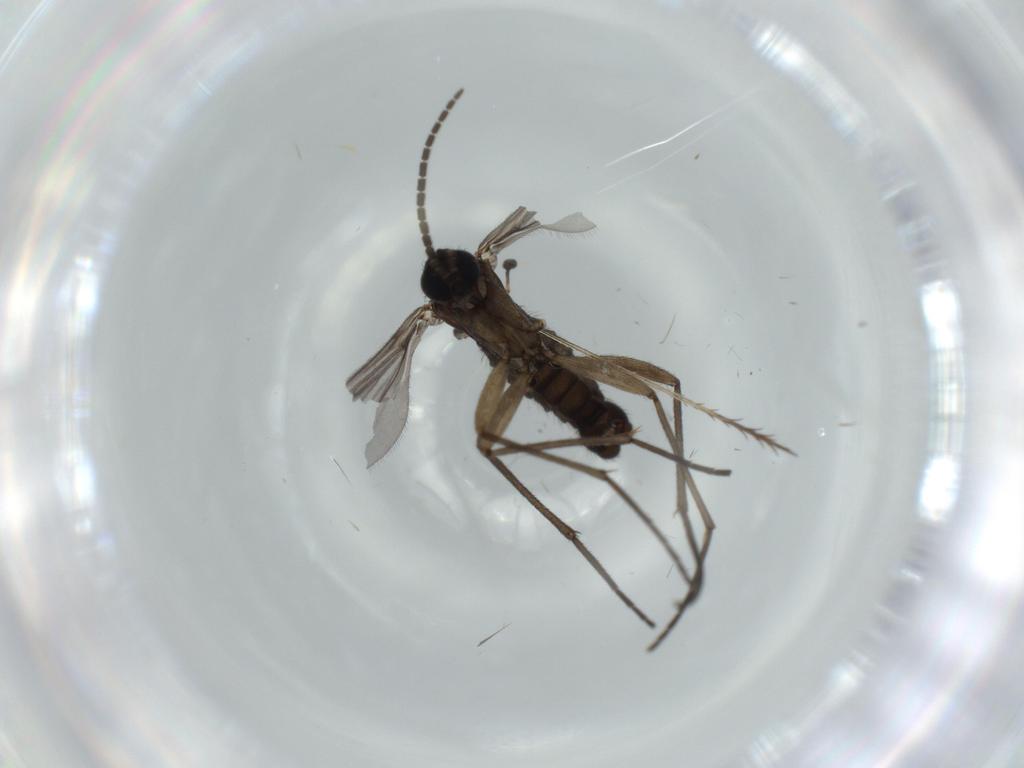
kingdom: Animalia
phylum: Arthropoda
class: Insecta
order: Diptera
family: Sciaridae
